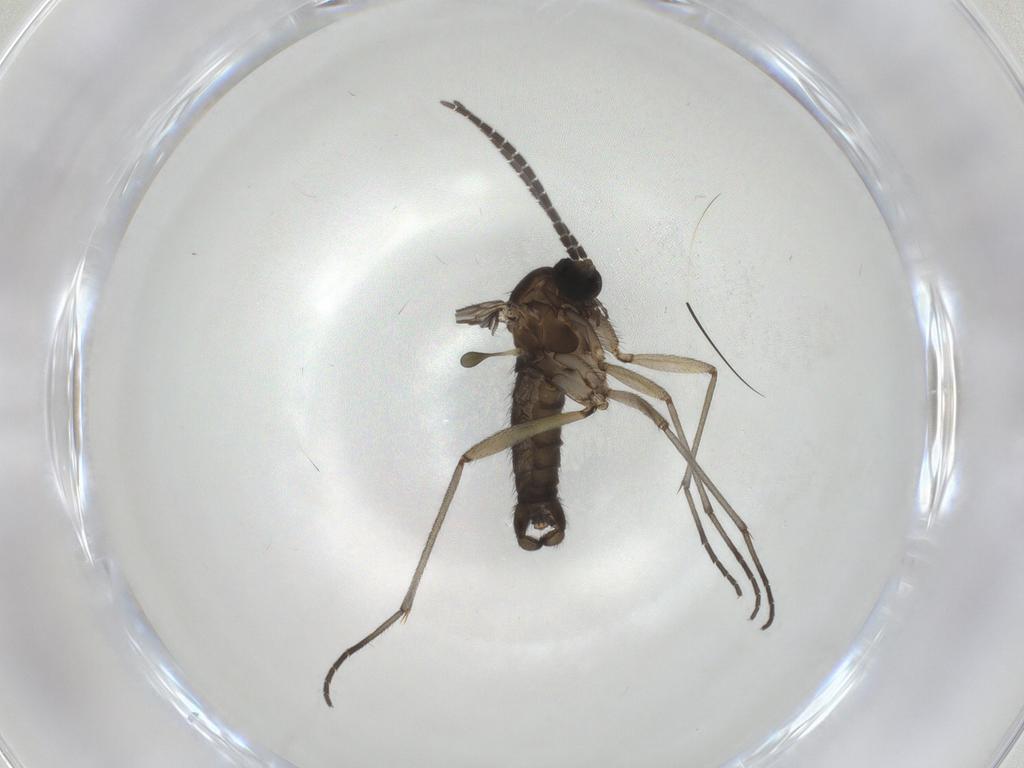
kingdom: Animalia
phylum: Arthropoda
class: Insecta
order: Diptera
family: Sciaridae
